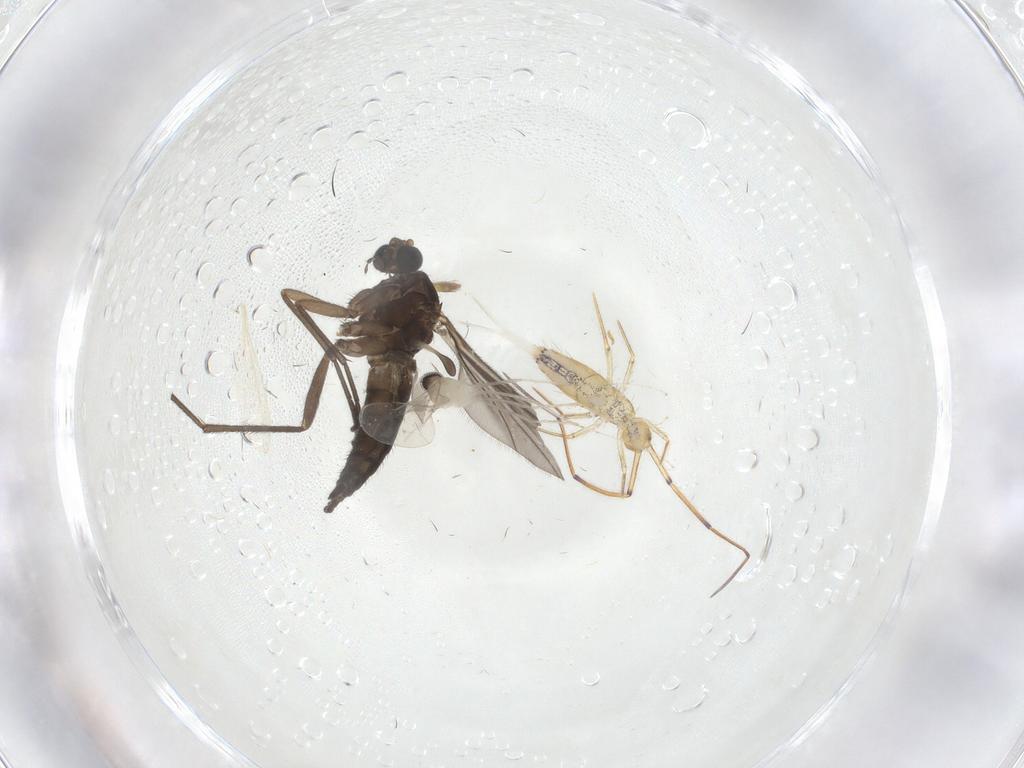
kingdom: Animalia
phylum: Arthropoda
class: Insecta
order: Diptera
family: Sciaridae
